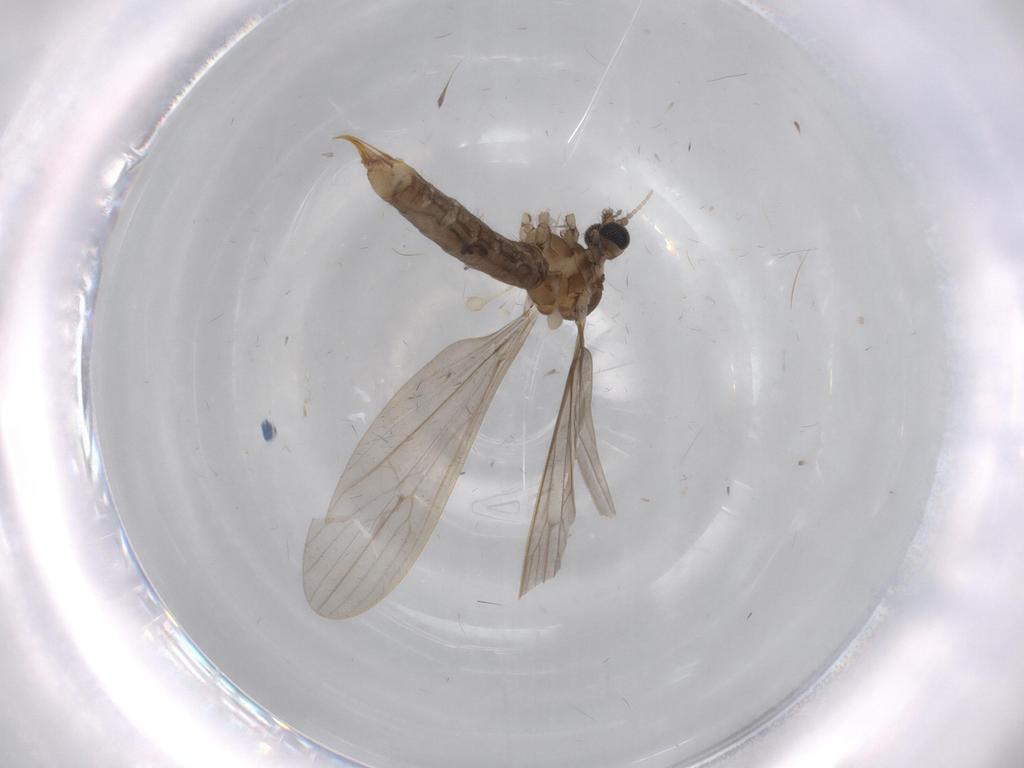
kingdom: Animalia
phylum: Arthropoda
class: Insecta
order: Diptera
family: Limoniidae
